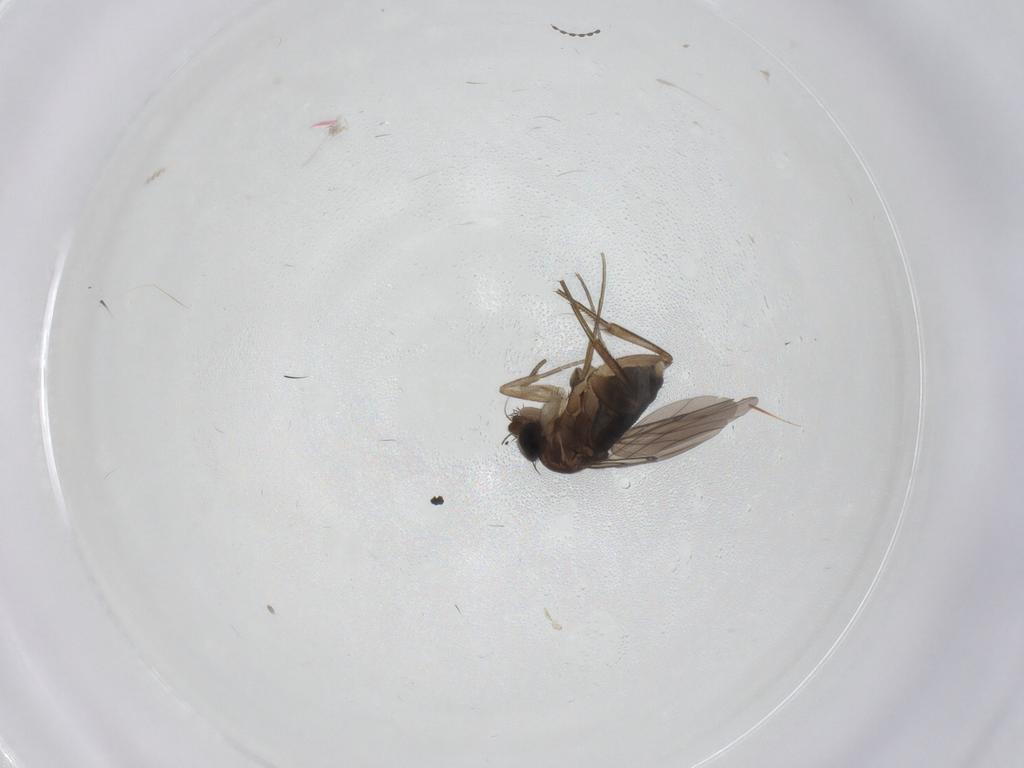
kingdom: Animalia
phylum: Arthropoda
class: Insecta
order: Diptera
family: Phoridae
